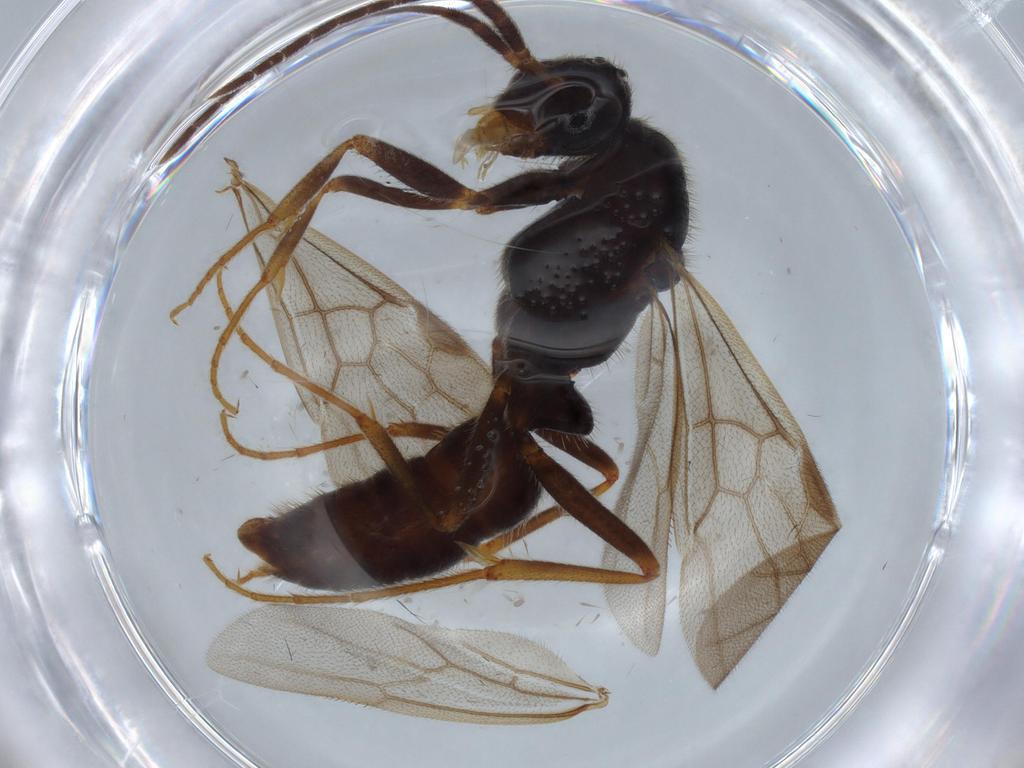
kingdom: Animalia
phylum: Arthropoda
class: Insecta
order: Hymenoptera
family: Formicidae
